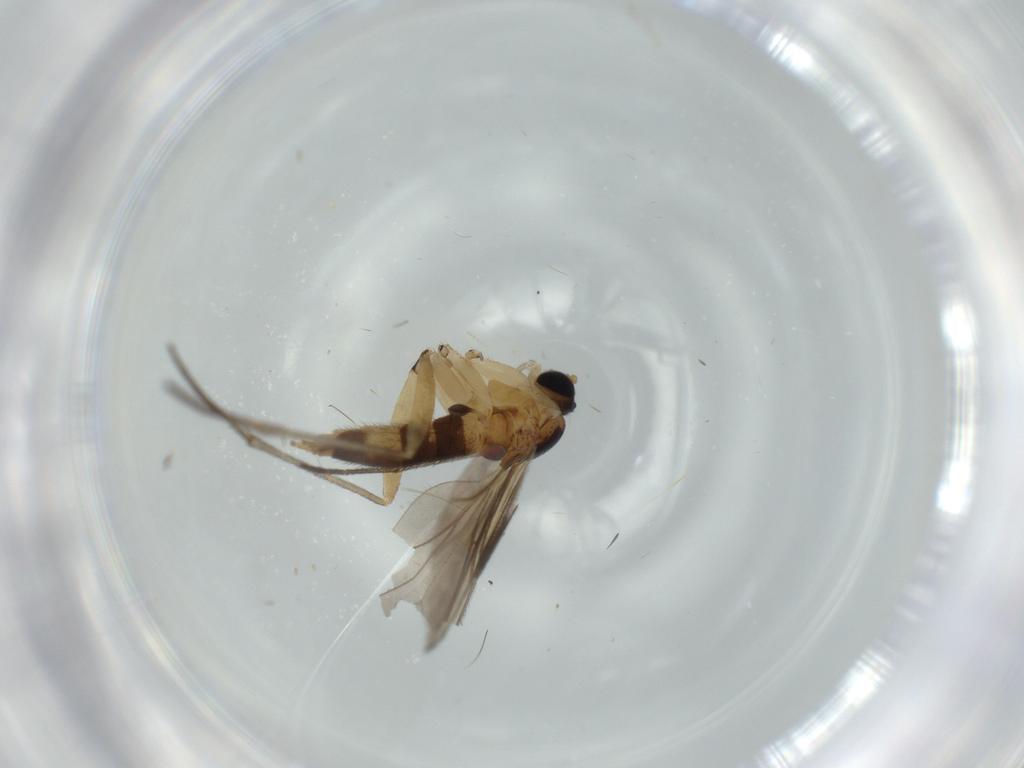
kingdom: Animalia
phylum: Arthropoda
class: Insecta
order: Diptera
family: Sciaridae
